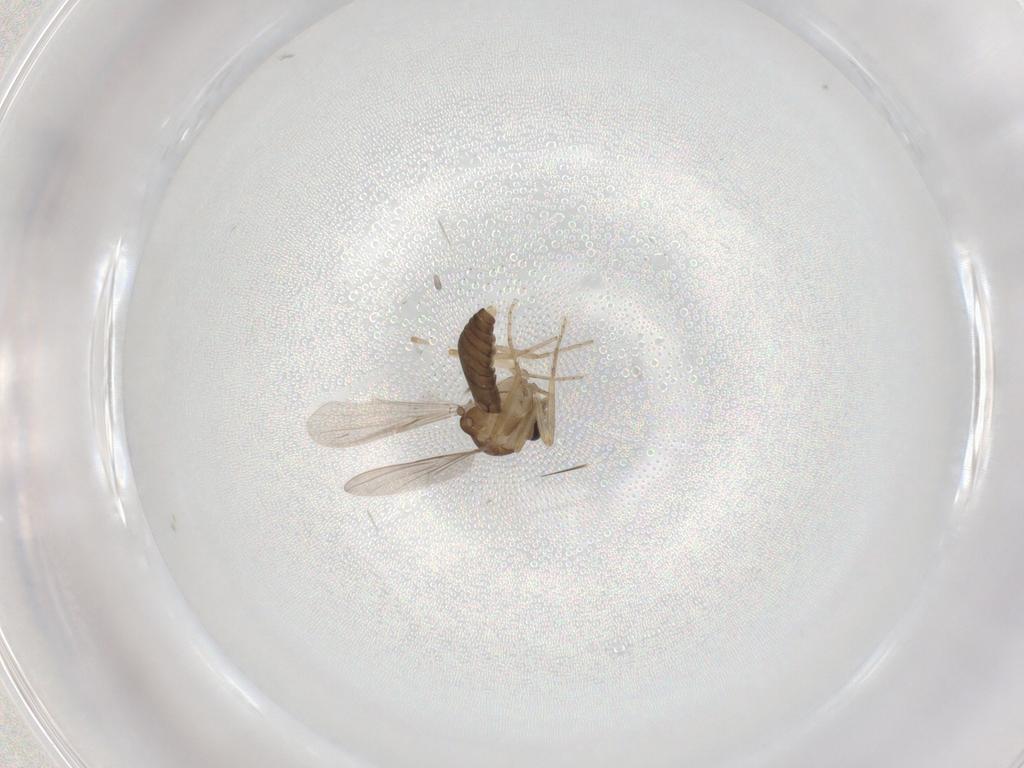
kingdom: Animalia
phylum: Arthropoda
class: Insecta
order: Diptera
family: Ceratopogonidae
